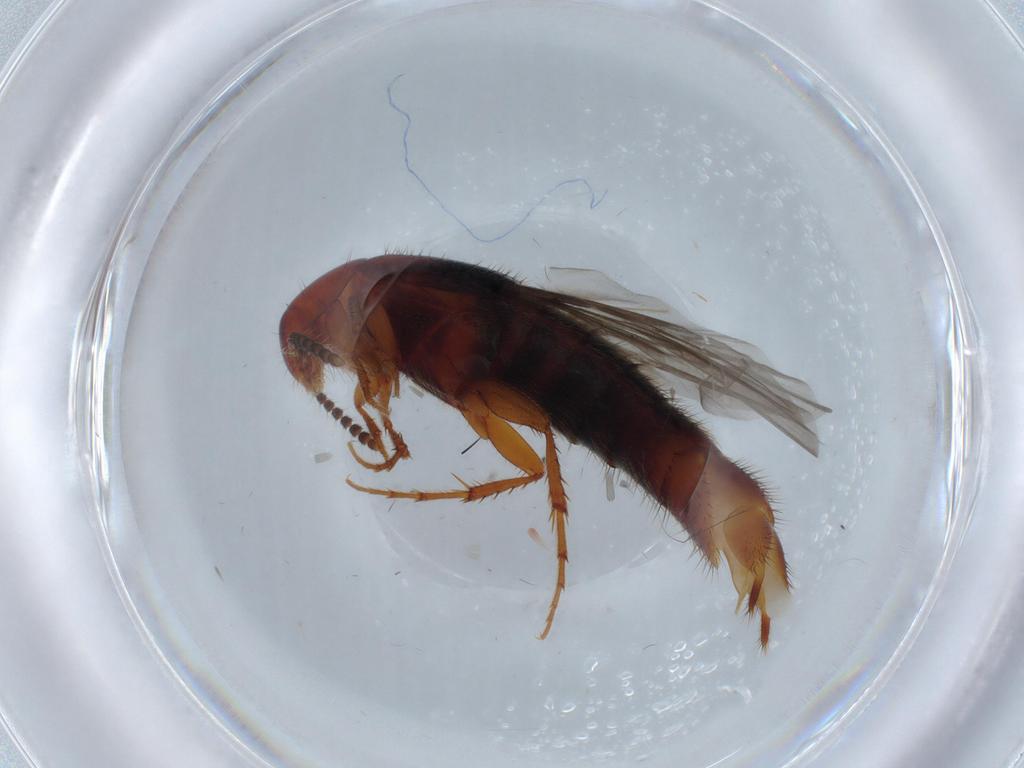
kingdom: Animalia
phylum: Arthropoda
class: Insecta
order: Coleoptera
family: Staphylinidae
